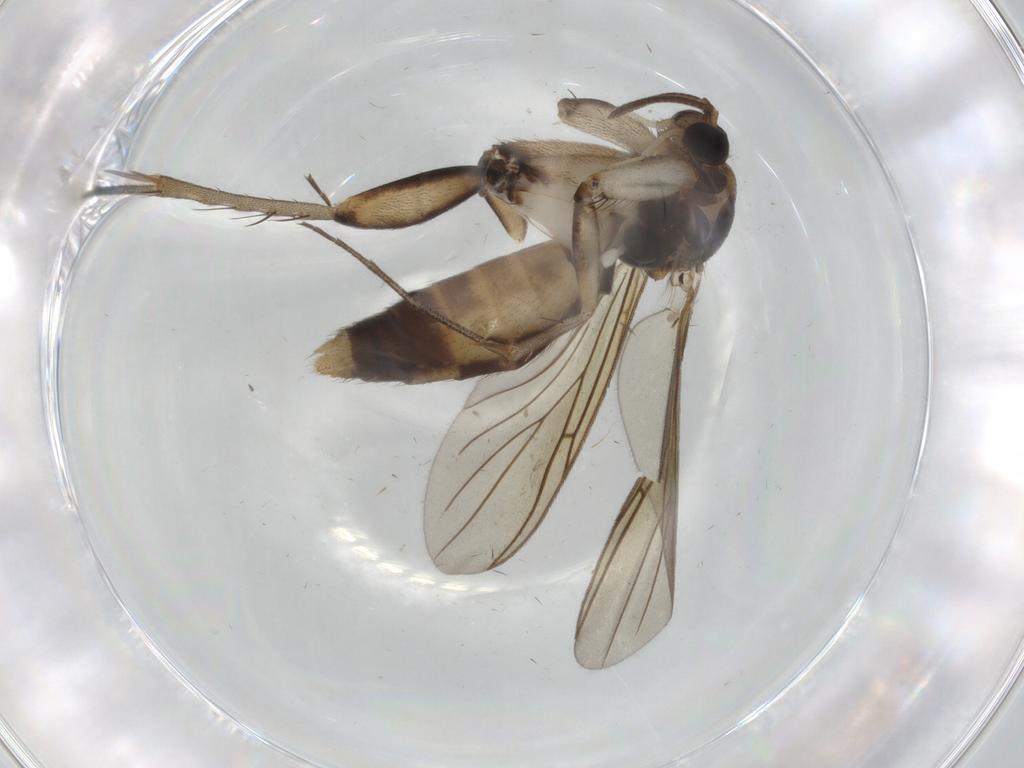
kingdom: Animalia
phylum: Arthropoda
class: Insecta
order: Diptera
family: Mycetophilidae
